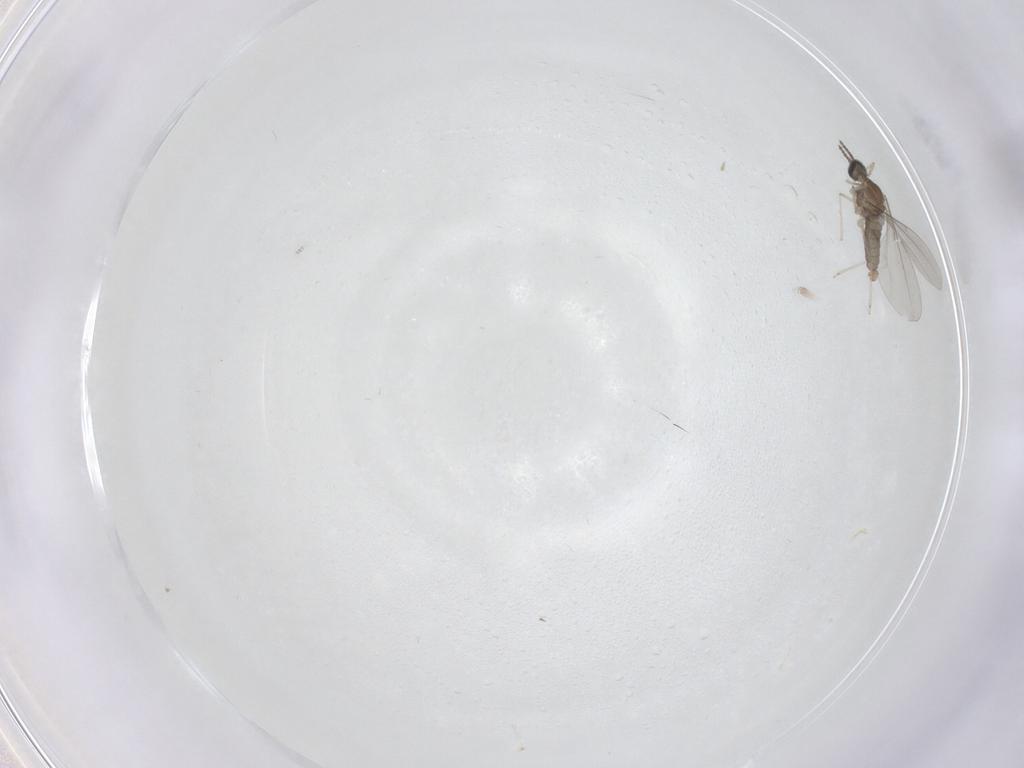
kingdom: Animalia
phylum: Arthropoda
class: Insecta
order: Diptera
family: Cecidomyiidae
